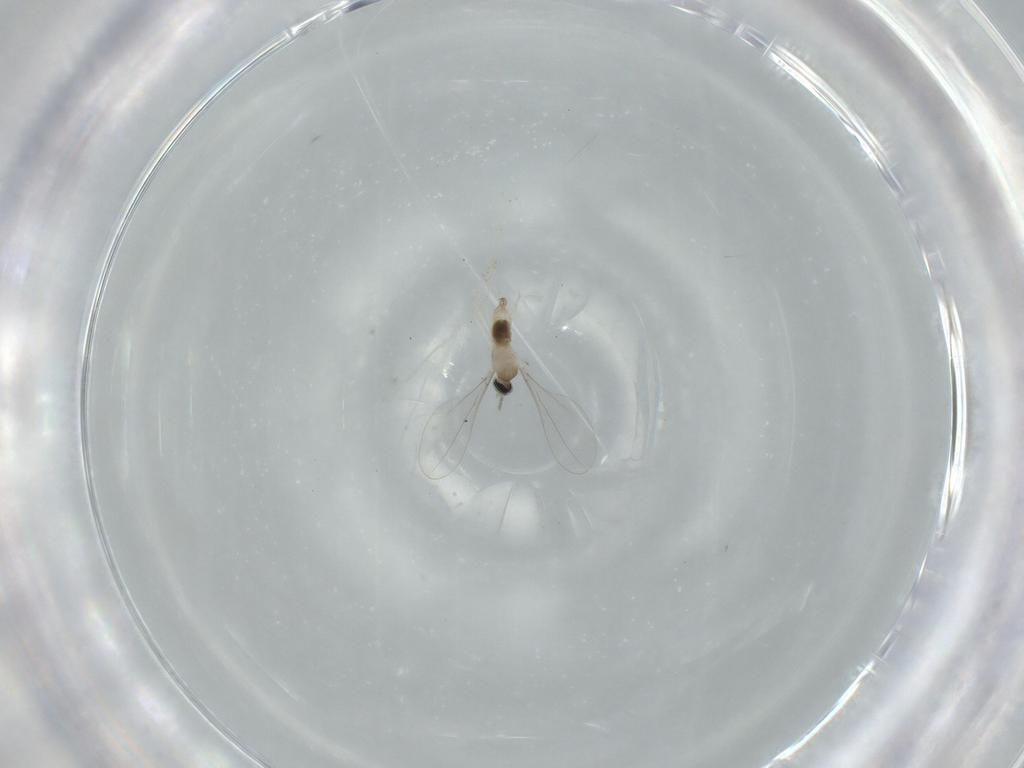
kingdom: Animalia
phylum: Arthropoda
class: Insecta
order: Diptera
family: Cecidomyiidae
